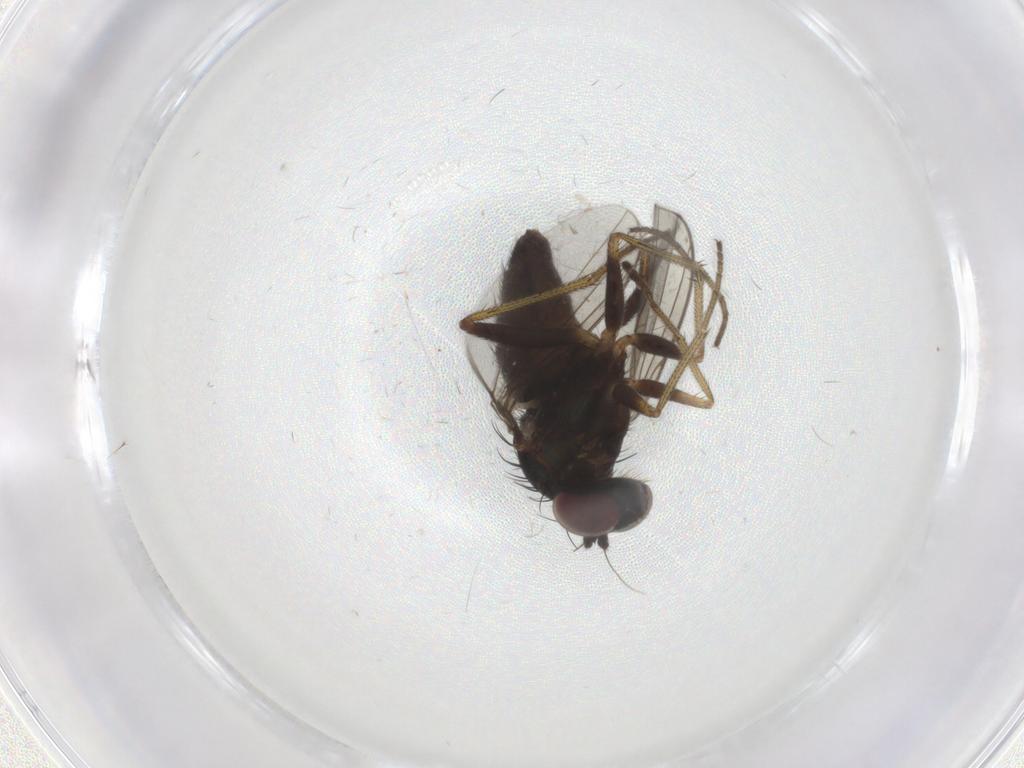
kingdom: Animalia
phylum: Arthropoda
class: Insecta
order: Diptera
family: Dolichopodidae
